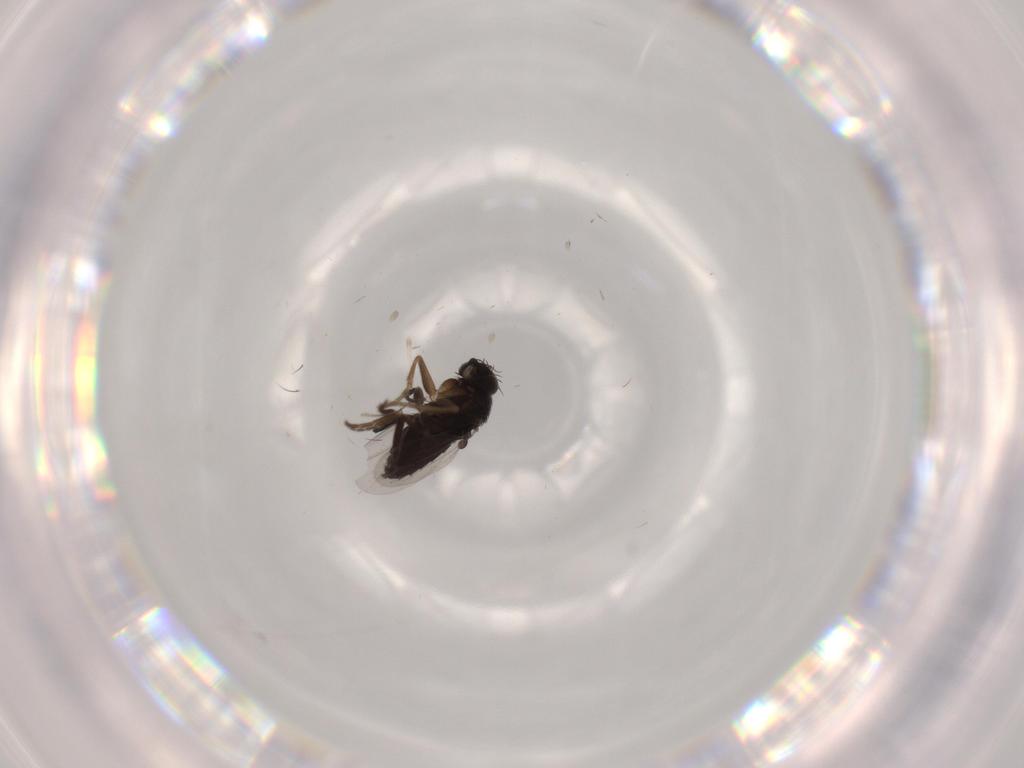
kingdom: Animalia
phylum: Arthropoda
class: Insecta
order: Diptera
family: Phoridae
